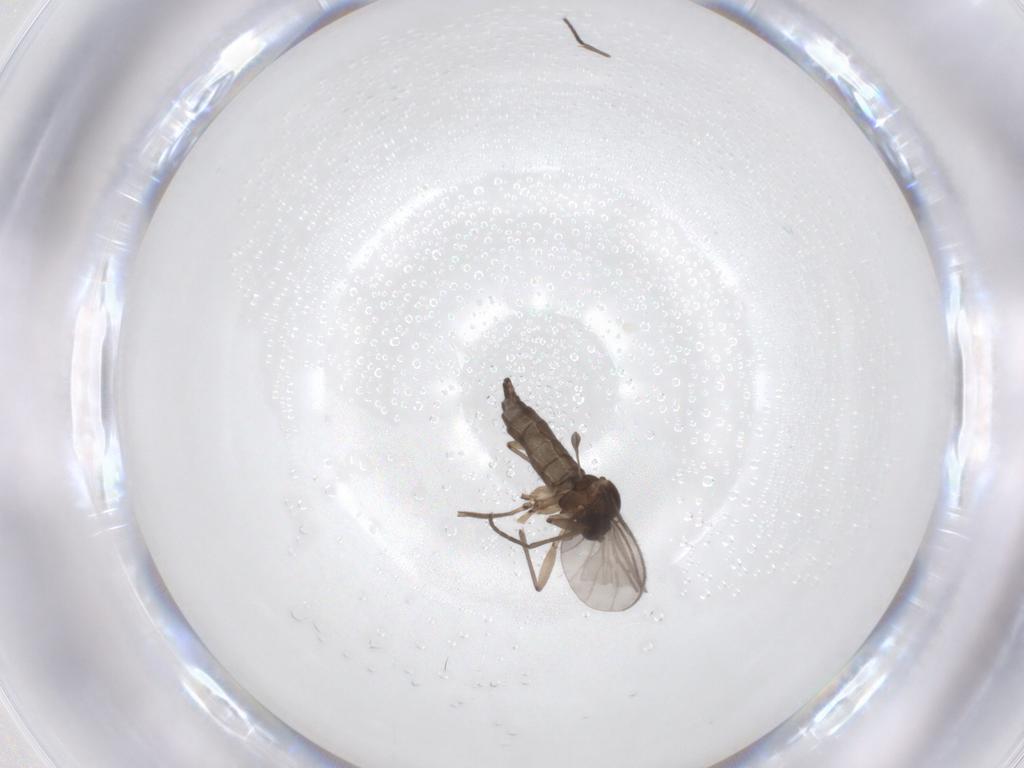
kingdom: Animalia
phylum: Arthropoda
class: Insecta
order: Diptera
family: Sciaridae
